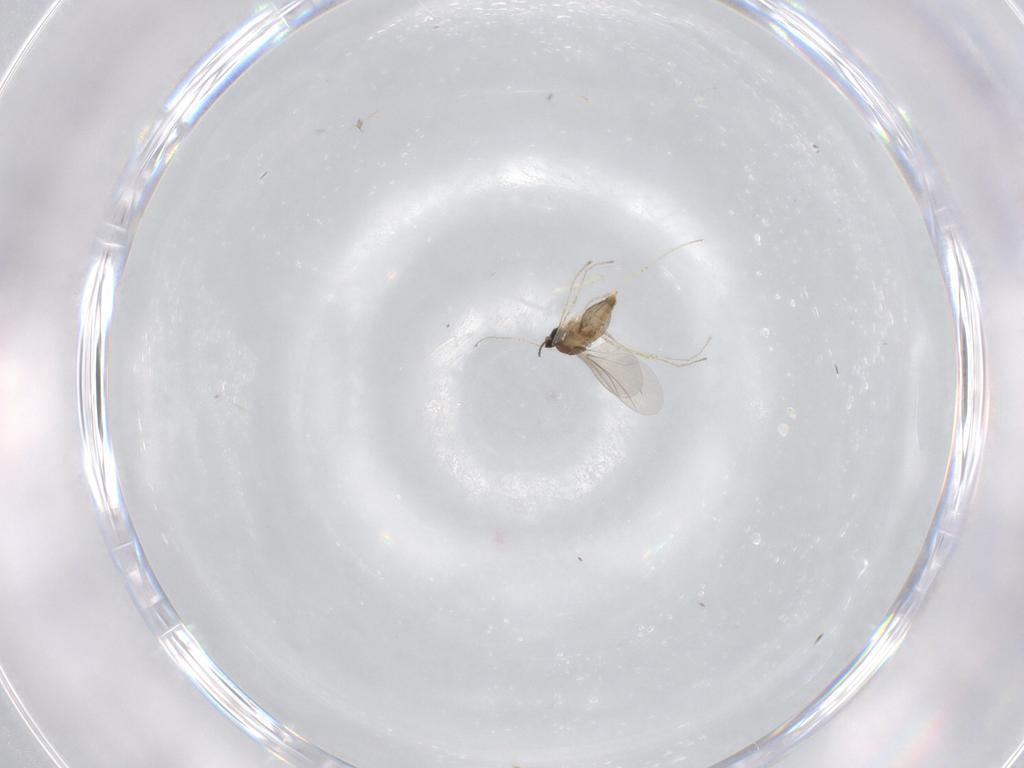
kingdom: Animalia
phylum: Arthropoda
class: Insecta
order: Diptera
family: Cecidomyiidae
